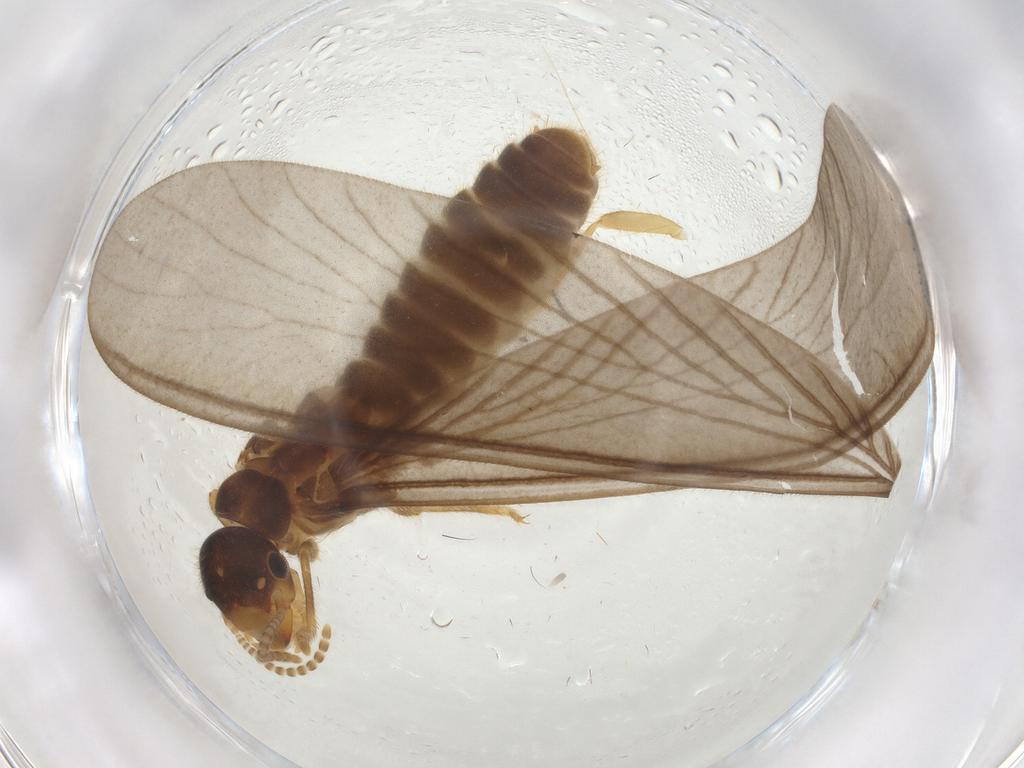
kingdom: Animalia
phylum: Arthropoda
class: Insecta
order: Blattodea
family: Ectobiidae
